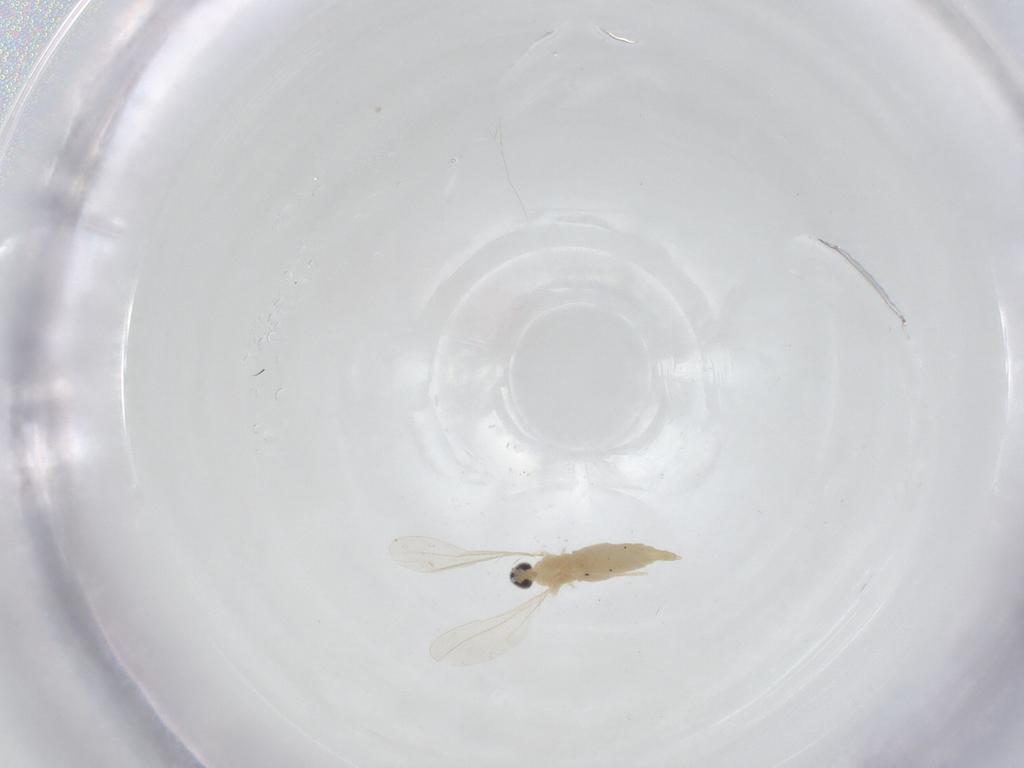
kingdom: Animalia
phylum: Arthropoda
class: Insecta
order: Diptera
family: Cecidomyiidae
